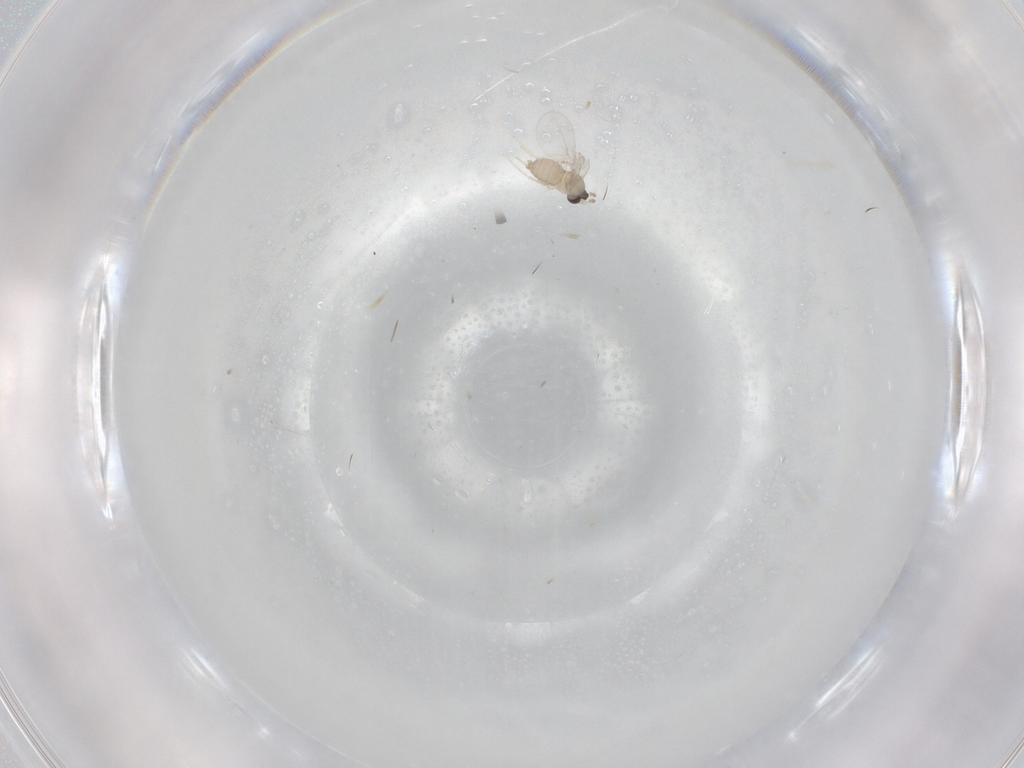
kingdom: Animalia
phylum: Arthropoda
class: Insecta
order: Diptera
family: Cecidomyiidae
